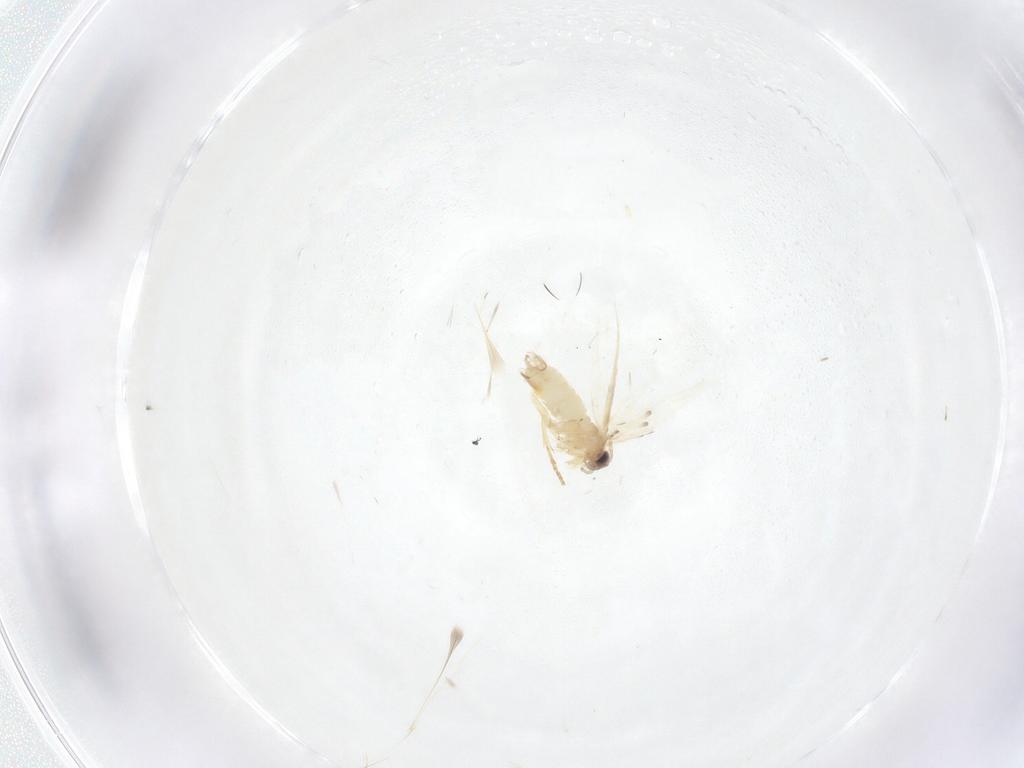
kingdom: Animalia
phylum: Arthropoda
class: Insecta
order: Lepidoptera
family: Nepticulidae
